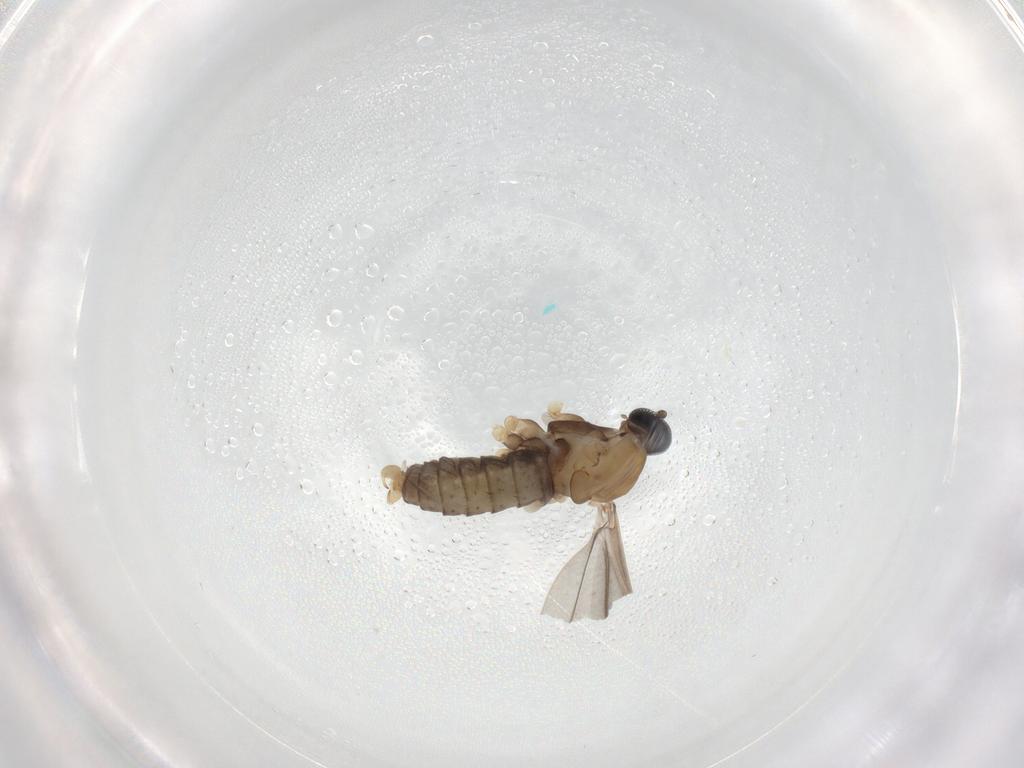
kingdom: Animalia
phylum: Arthropoda
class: Insecta
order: Diptera
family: Cecidomyiidae
